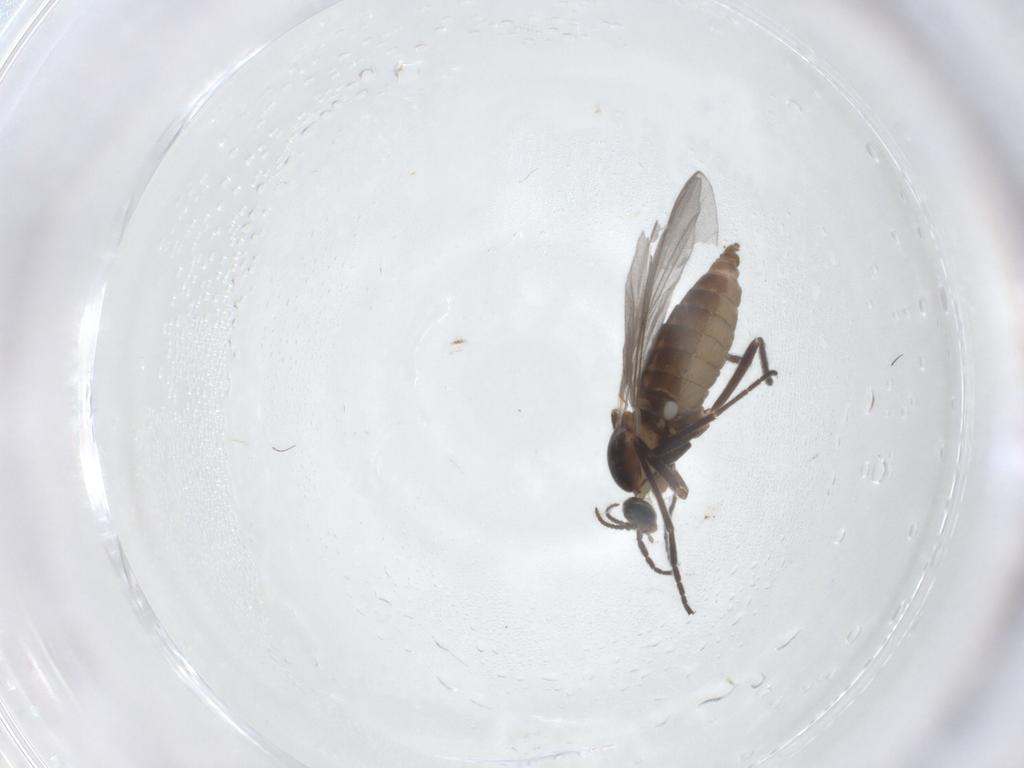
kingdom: Animalia
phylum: Arthropoda
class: Insecta
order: Diptera
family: Cecidomyiidae
